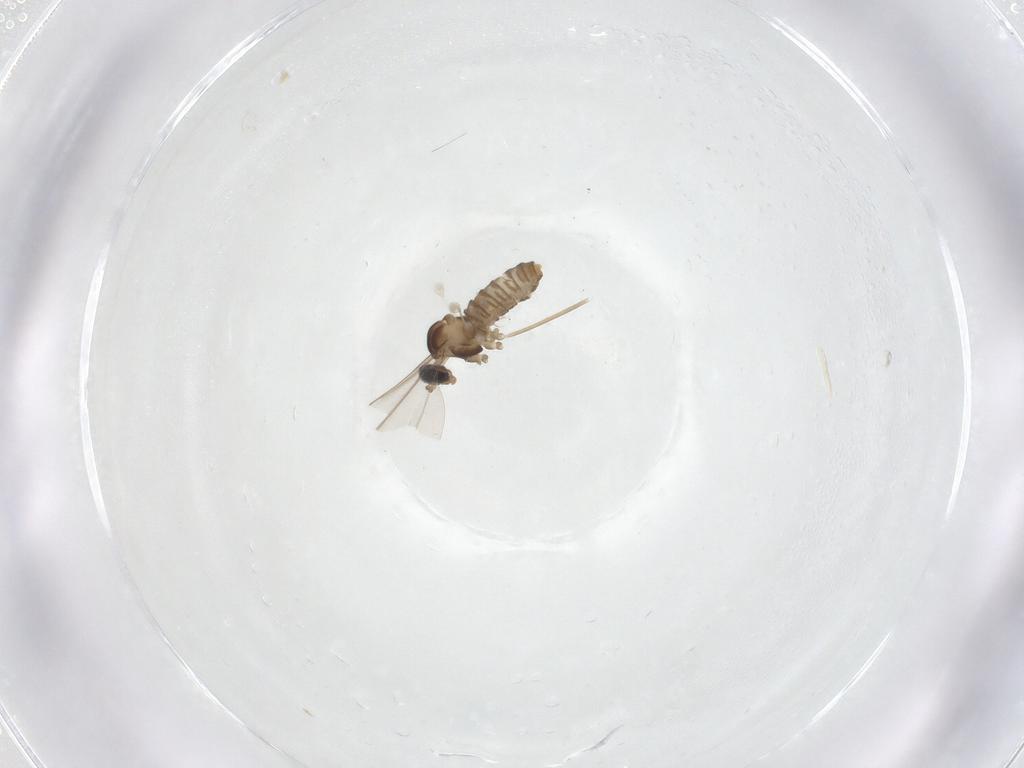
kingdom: Animalia
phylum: Arthropoda
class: Insecta
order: Diptera
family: Cecidomyiidae
